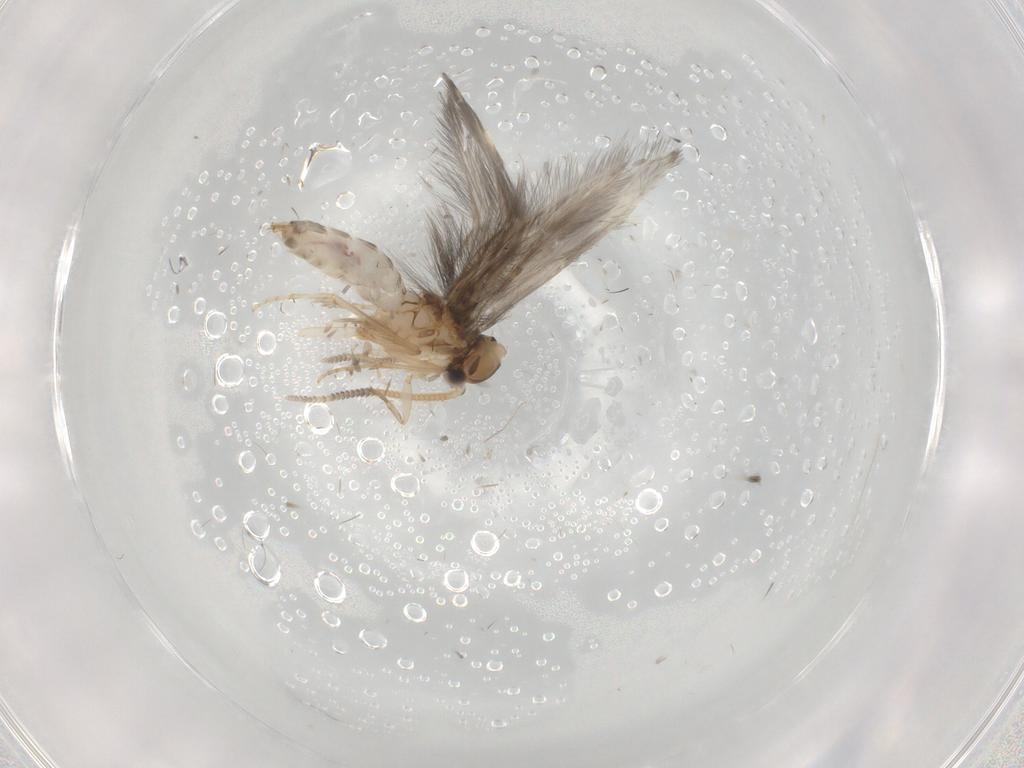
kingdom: Animalia
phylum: Arthropoda
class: Insecta
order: Trichoptera
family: Hydroptilidae
